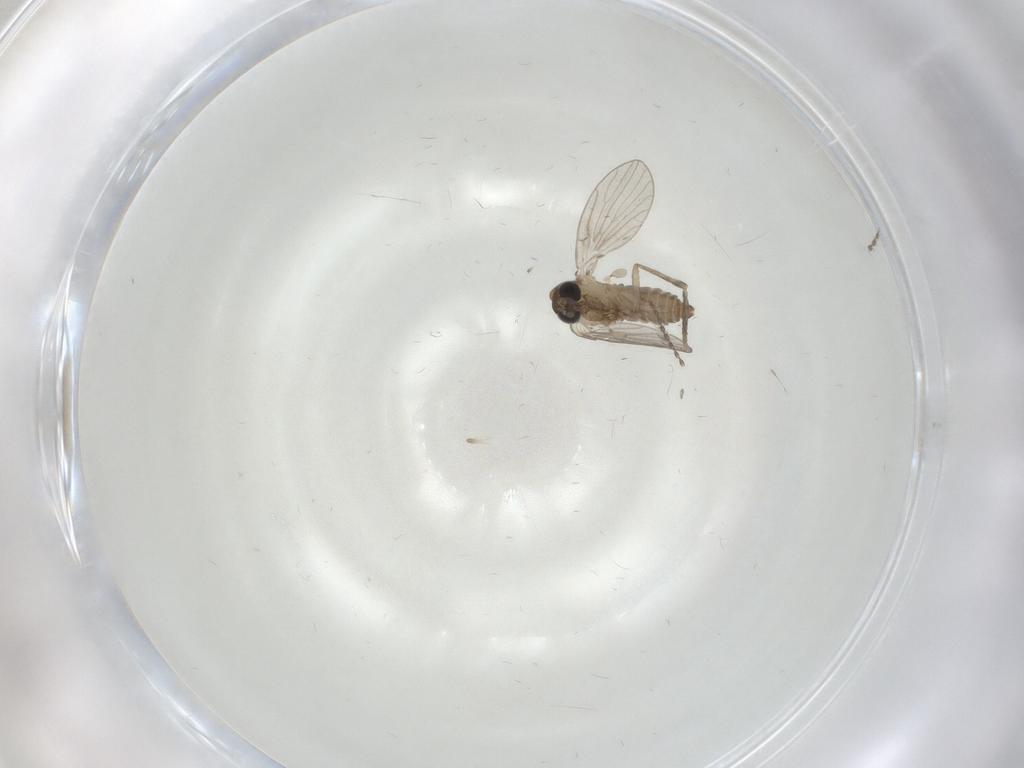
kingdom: Animalia
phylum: Arthropoda
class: Insecta
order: Diptera
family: Psychodidae
